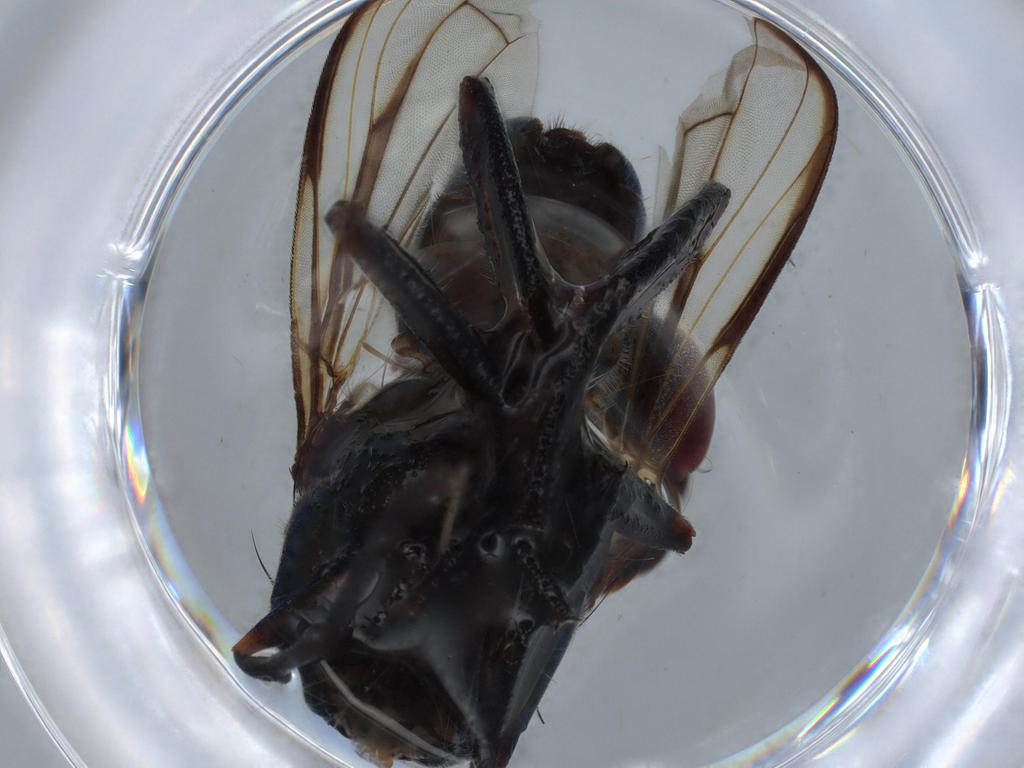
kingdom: Animalia
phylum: Arthropoda
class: Insecta
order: Diptera
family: Platystomatidae
